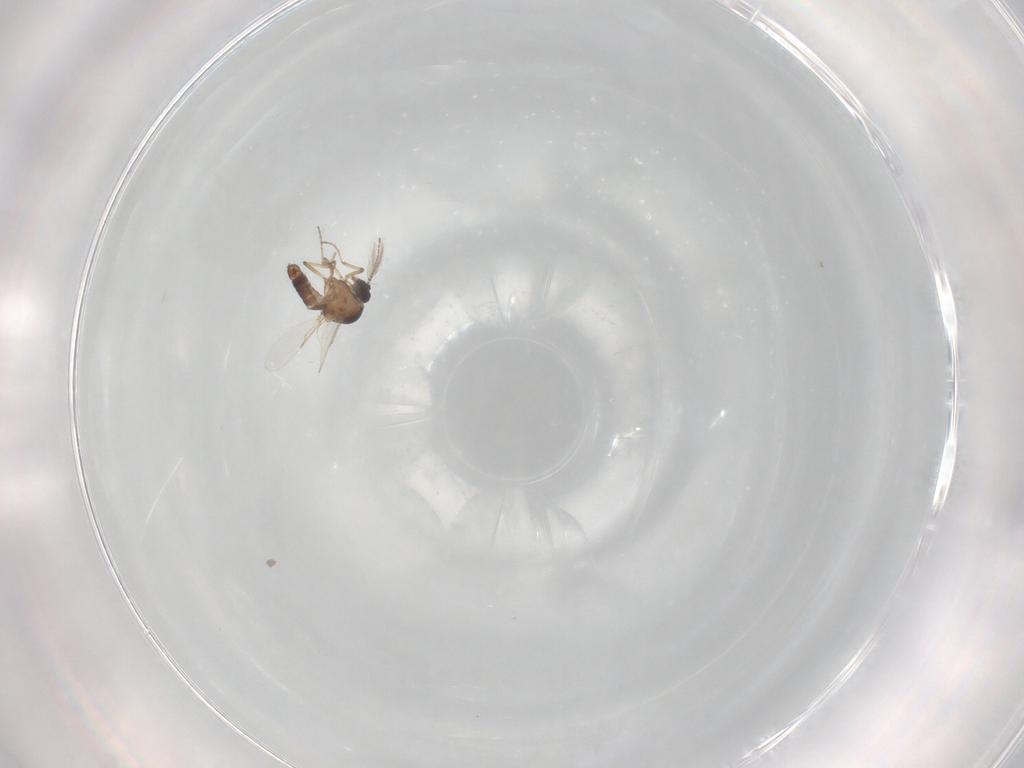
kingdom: Animalia
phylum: Arthropoda
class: Insecta
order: Diptera
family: Ceratopogonidae
